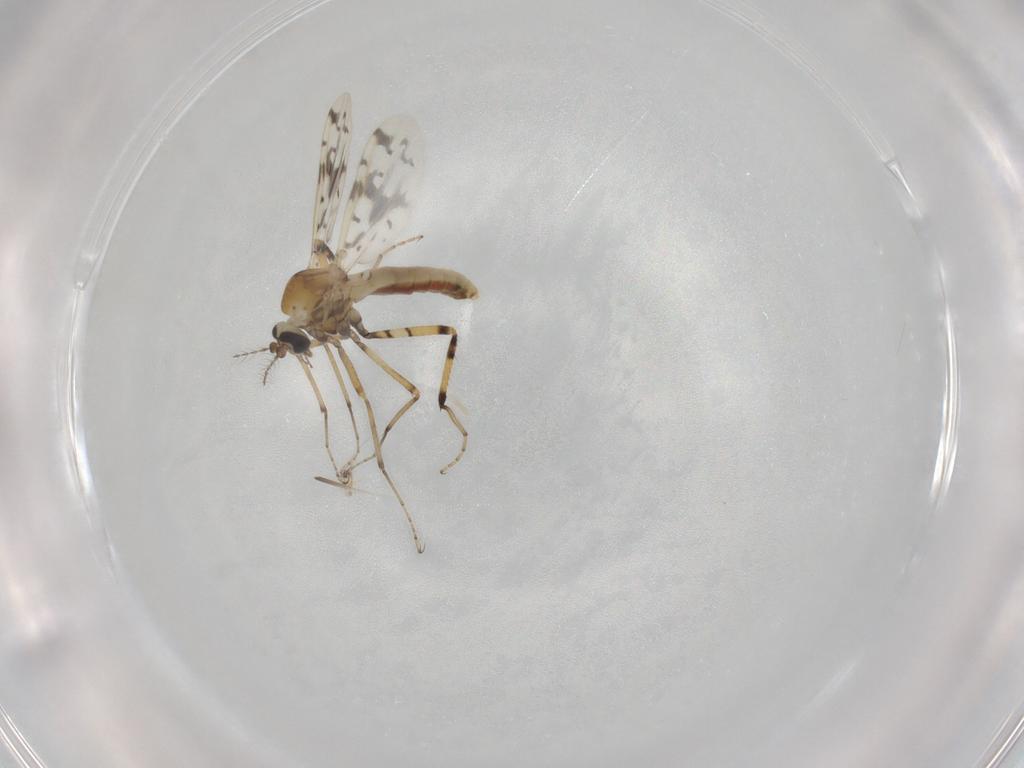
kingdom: Animalia
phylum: Arthropoda
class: Insecta
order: Diptera
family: Ceratopogonidae
